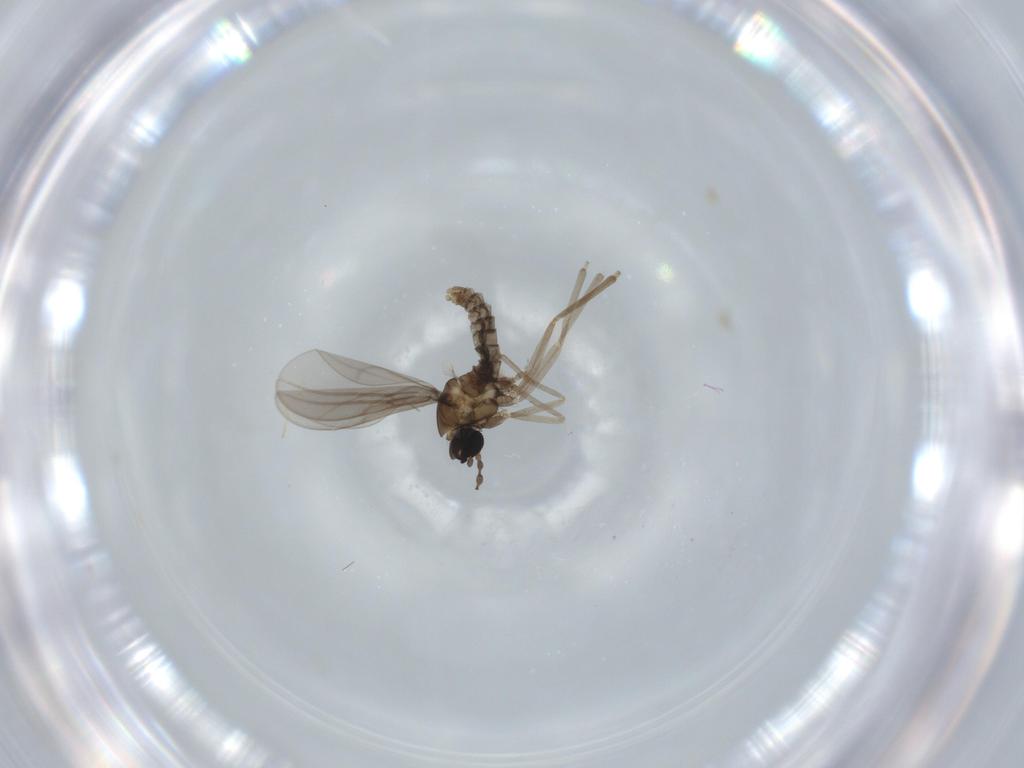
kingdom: Animalia
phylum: Arthropoda
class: Insecta
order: Diptera
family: Cecidomyiidae
